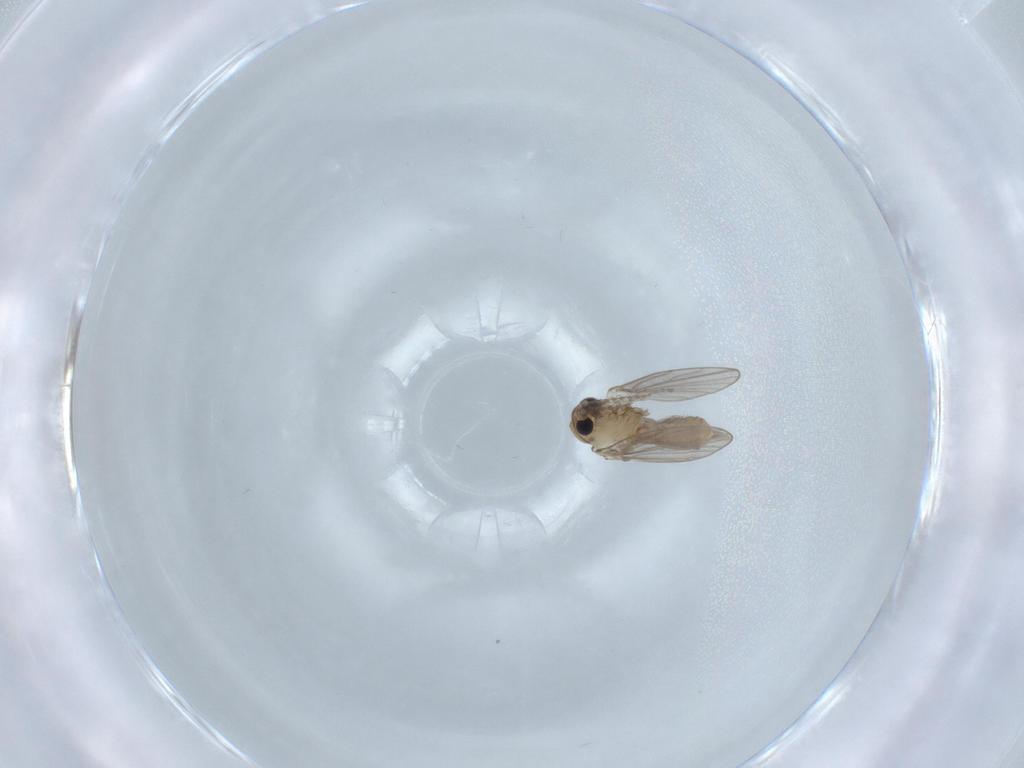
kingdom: Animalia
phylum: Arthropoda
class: Insecta
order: Diptera
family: Psychodidae
